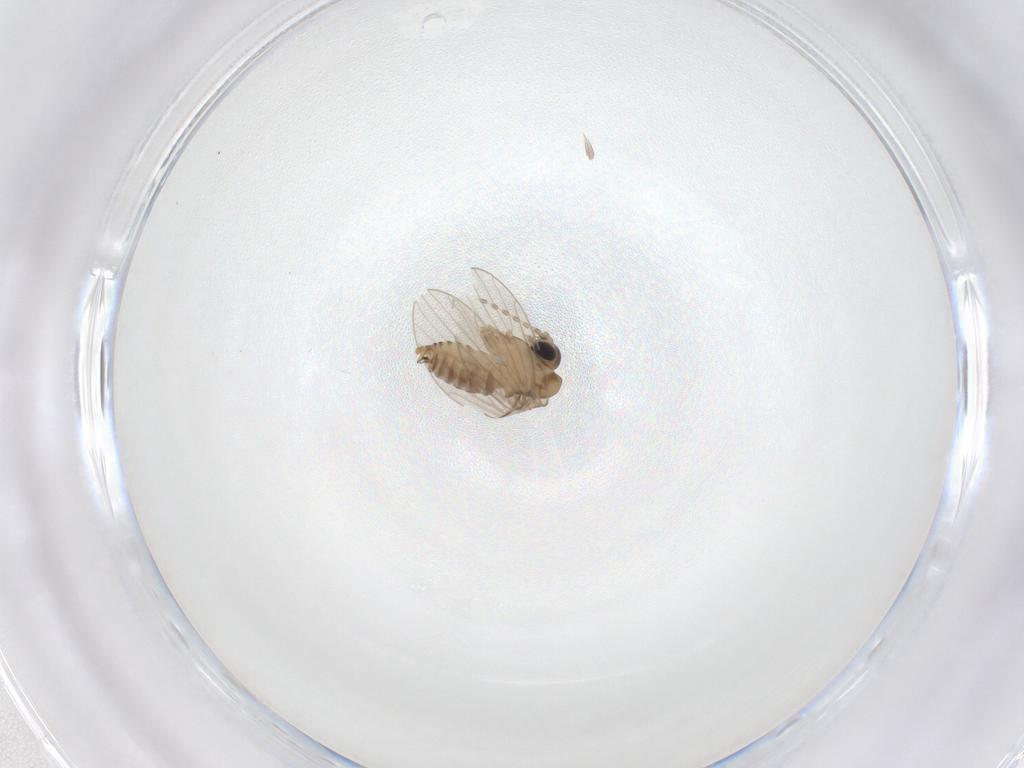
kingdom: Animalia
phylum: Arthropoda
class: Insecta
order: Diptera
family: Psychodidae
